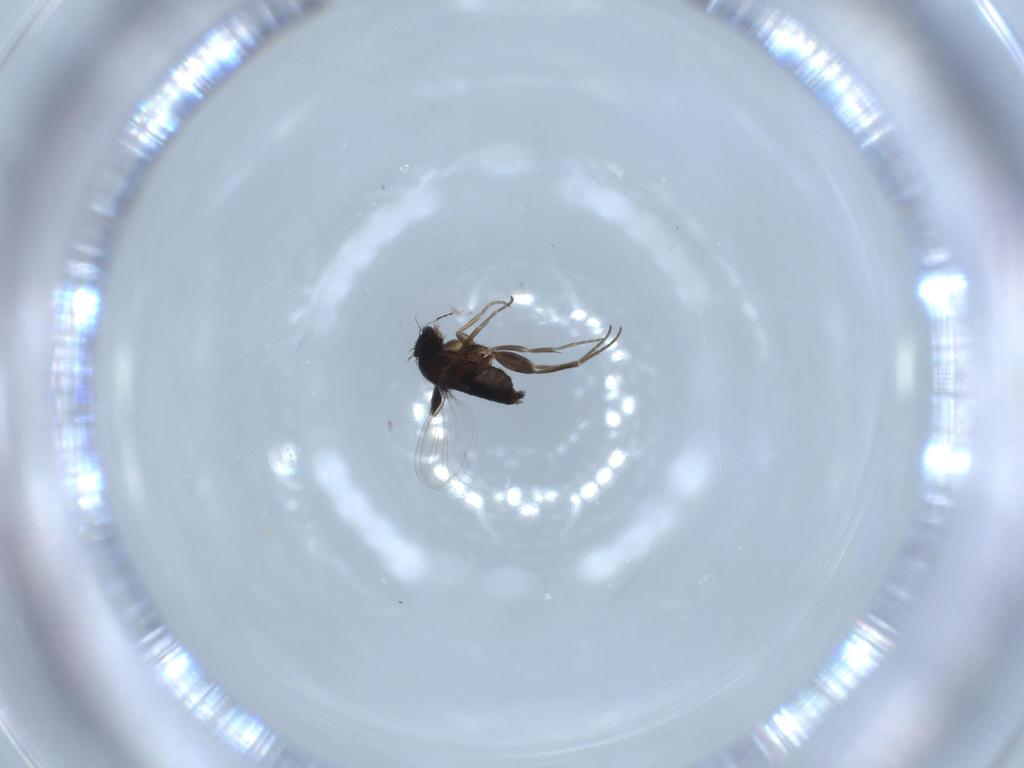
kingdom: Animalia
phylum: Arthropoda
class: Insecta
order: Diptera
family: Phoridae
